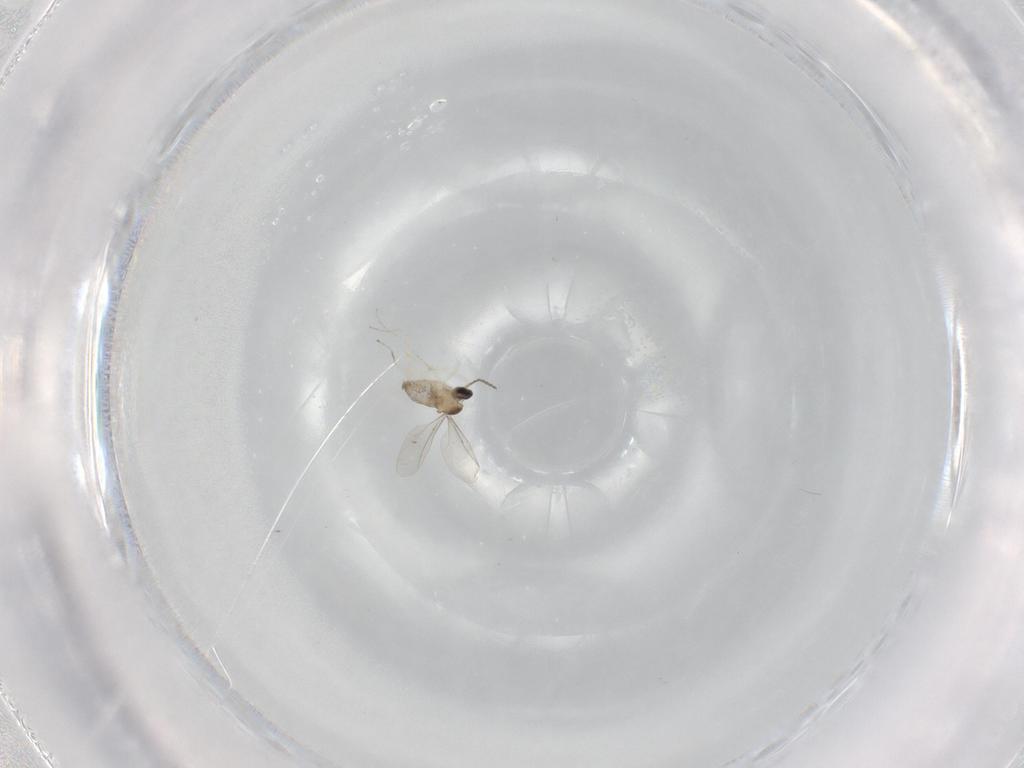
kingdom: Animalia
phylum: Arthropoda
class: Insecta
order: Diptera
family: Cecidomyiidae
